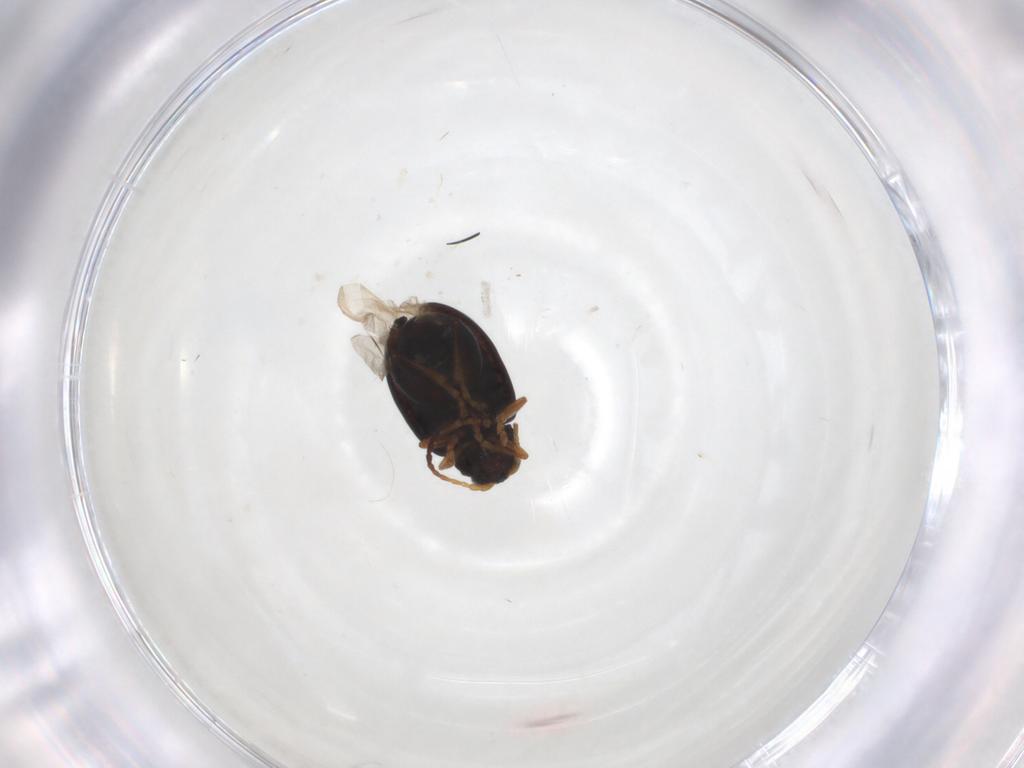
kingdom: Animalia
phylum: Arthropoda
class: Insecta
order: Coleoptera
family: Chrysomelidae
